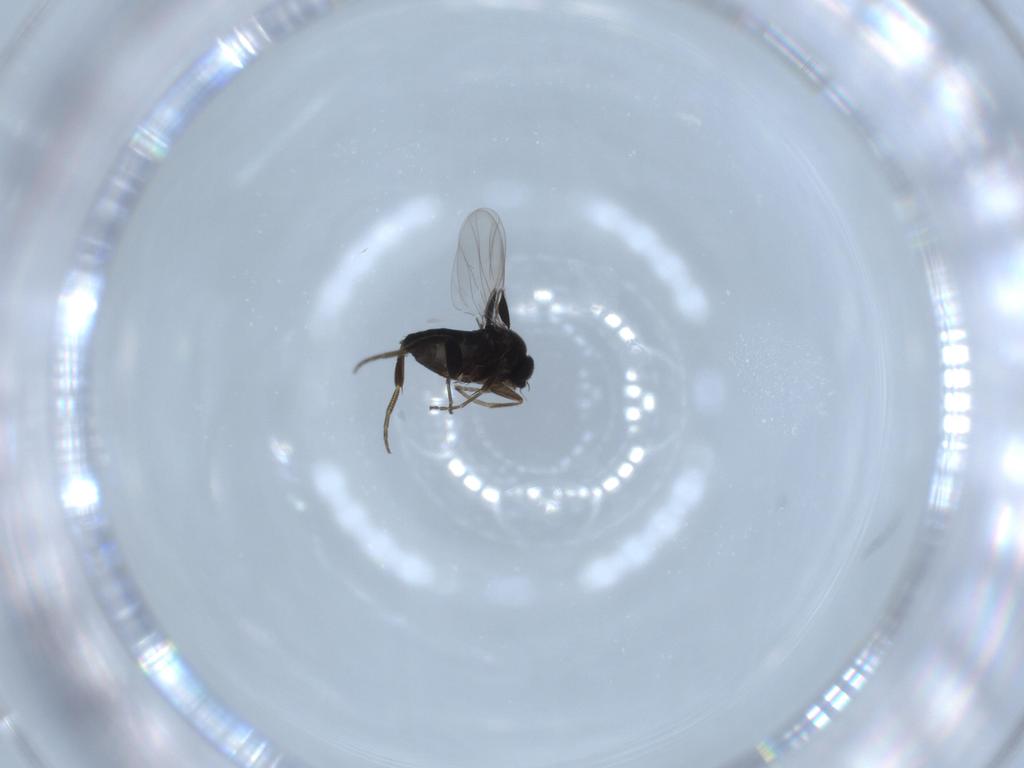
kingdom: Animalia
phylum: Arthropoda
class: Insecta
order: Diptera
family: Phoridae
